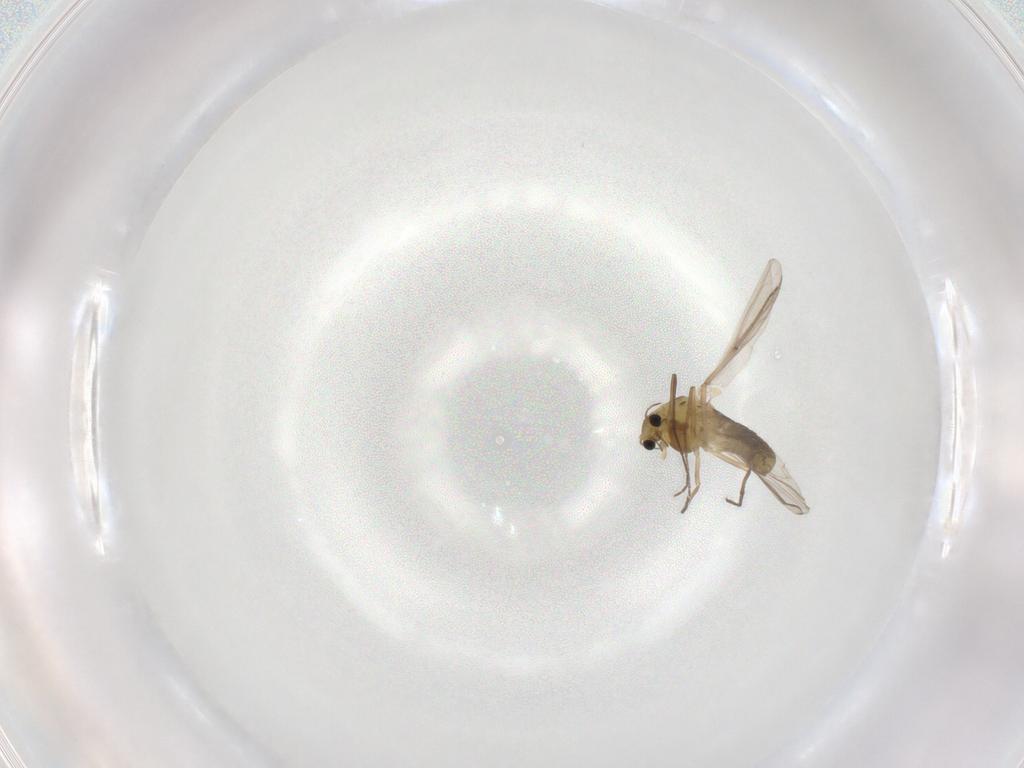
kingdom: Animalia
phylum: Arthropoda
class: Insecta
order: Diptera
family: Chironomidae
